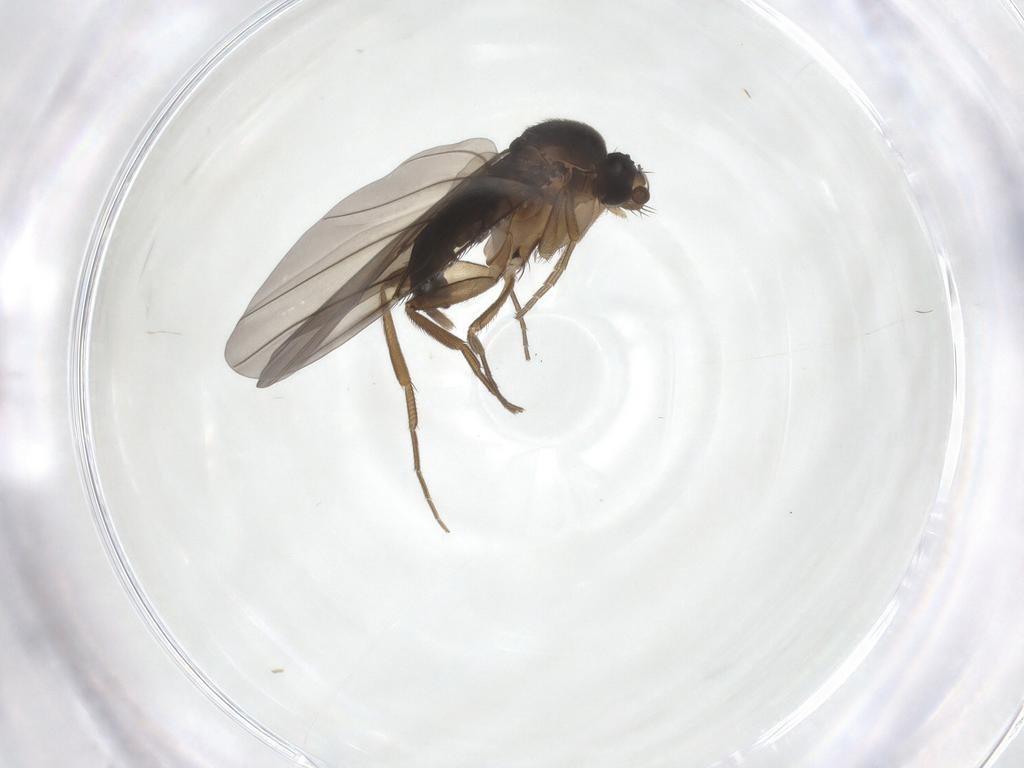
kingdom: Animalia
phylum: Arthropoda
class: Insecta
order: Diptera
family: Phoridae
